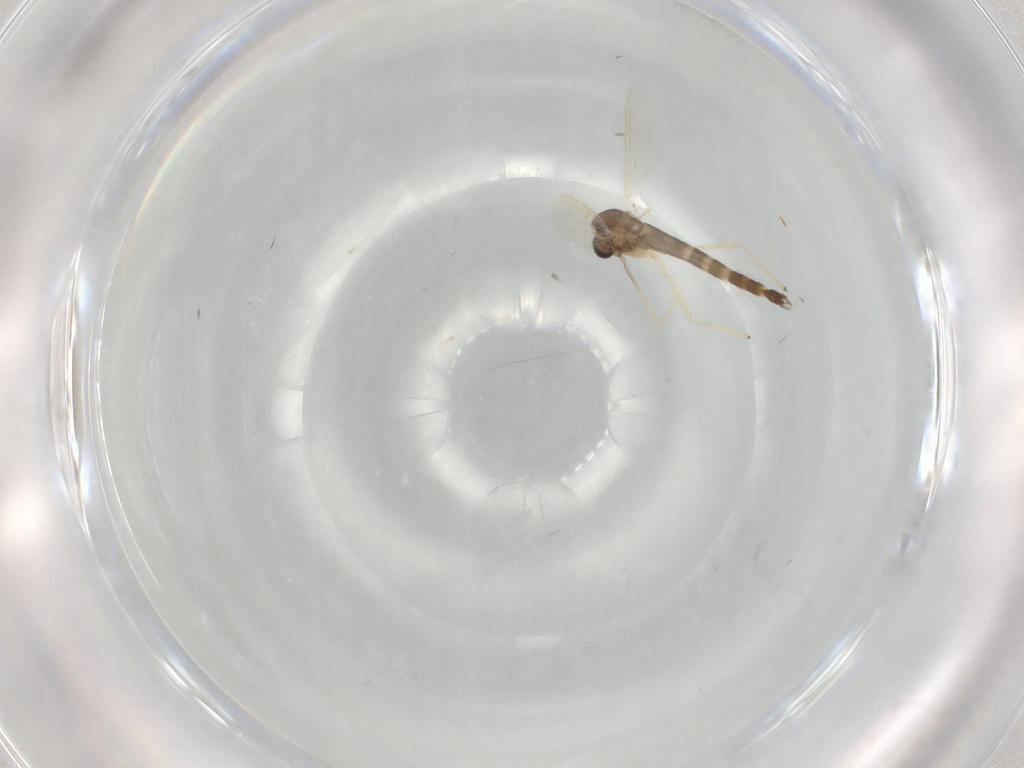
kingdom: Animalia
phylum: Arthropoda
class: Insecta
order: Diptera
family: Chironomidae
